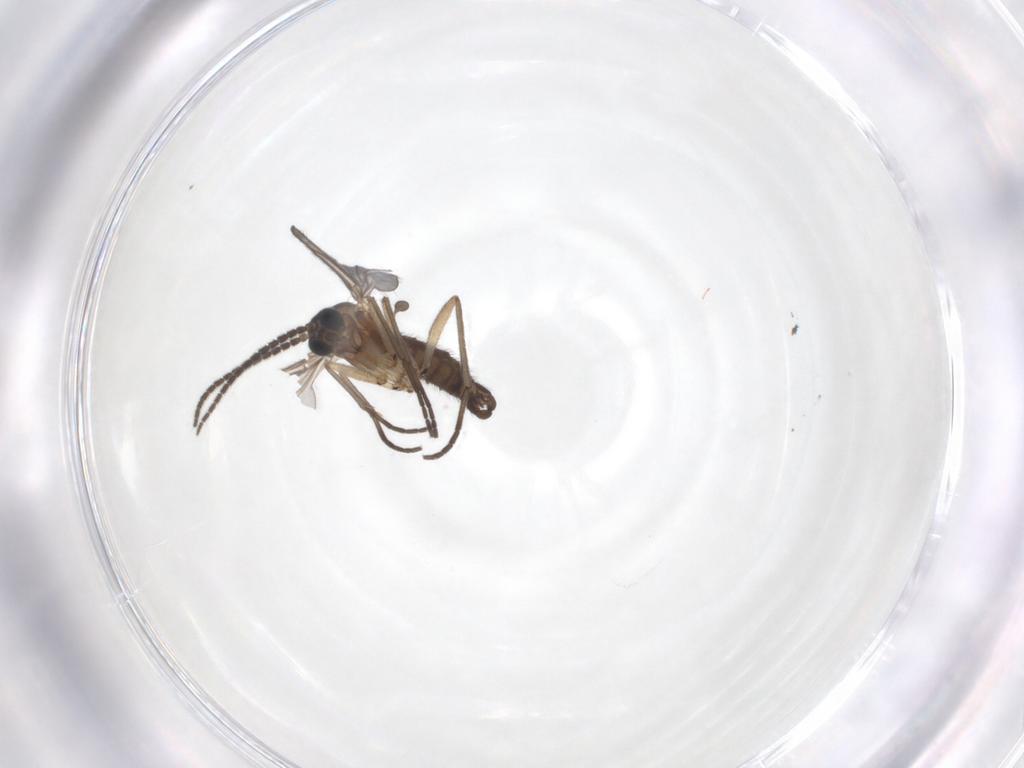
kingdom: Animalia
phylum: Arthropoda
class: Insecta
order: Diptera
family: Sciaridae
